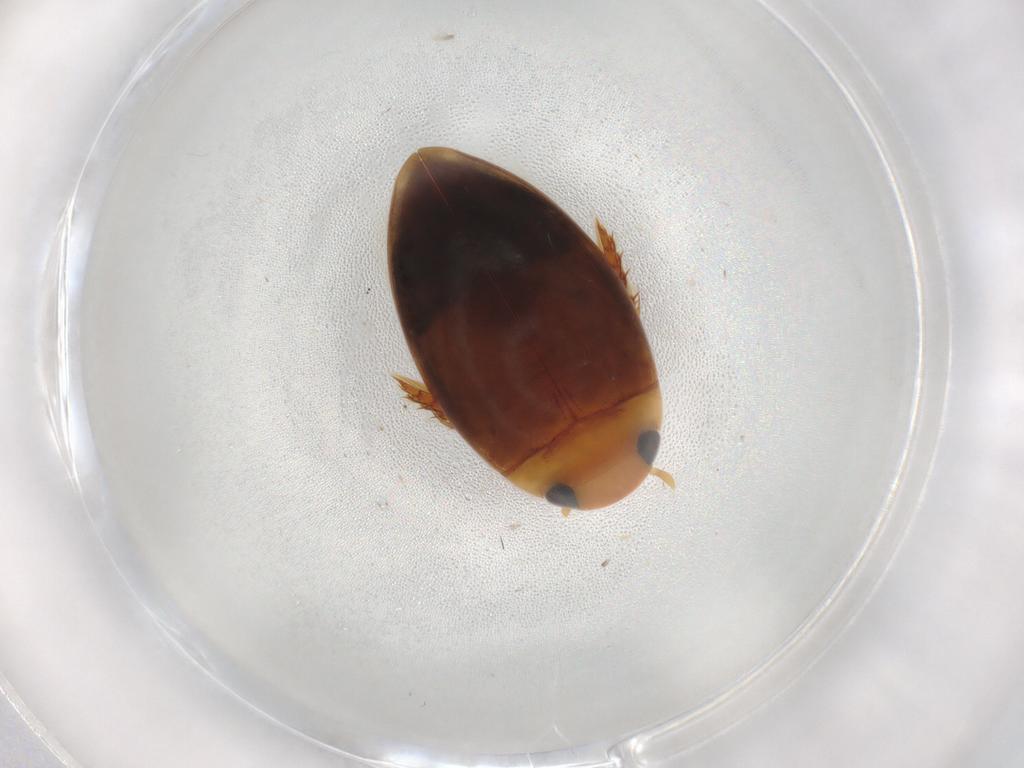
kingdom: Animalia
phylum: Arthropoda
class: Insecta
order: Coleoptera
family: Dytiscidae
